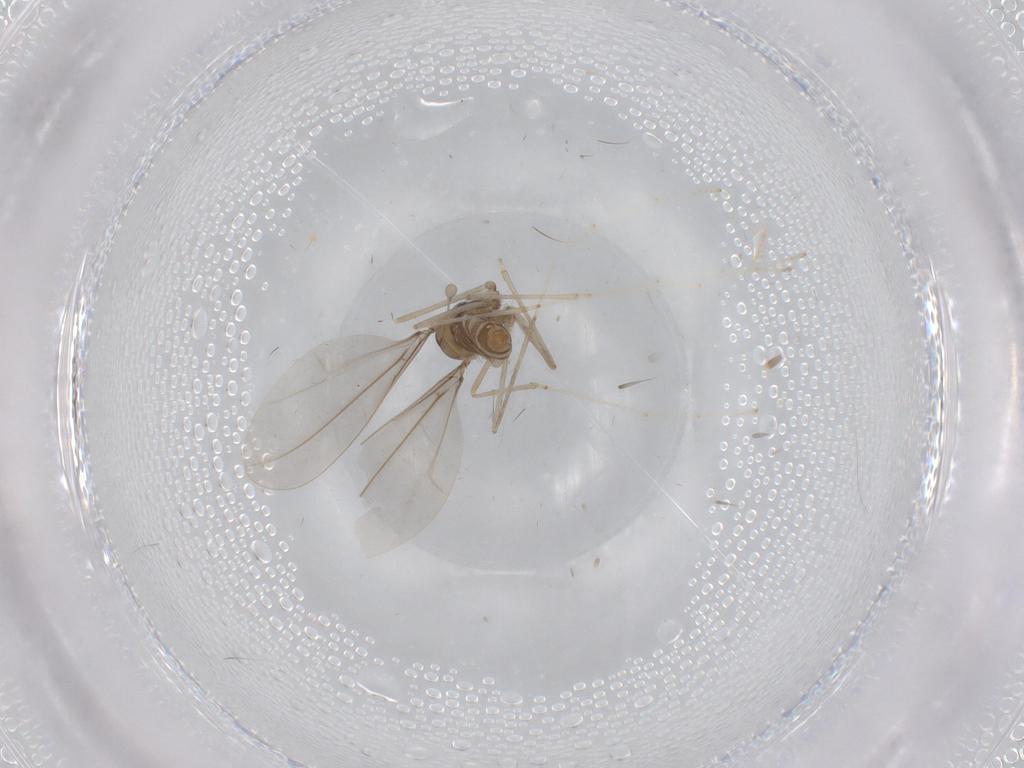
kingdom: Animalia
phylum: Arthropoda
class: Insecta
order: Diptera
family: Cecidomyiidae
